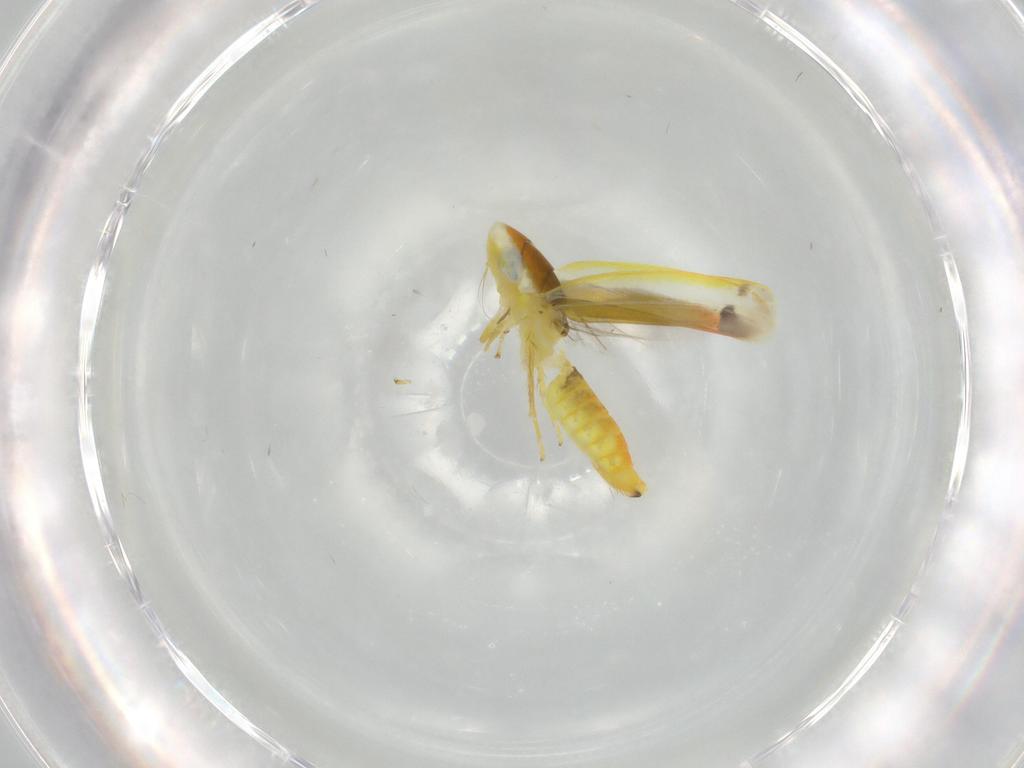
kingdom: Animalia
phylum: Arthropoda
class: Insecta
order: Hemiptera
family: Cicadellidae
